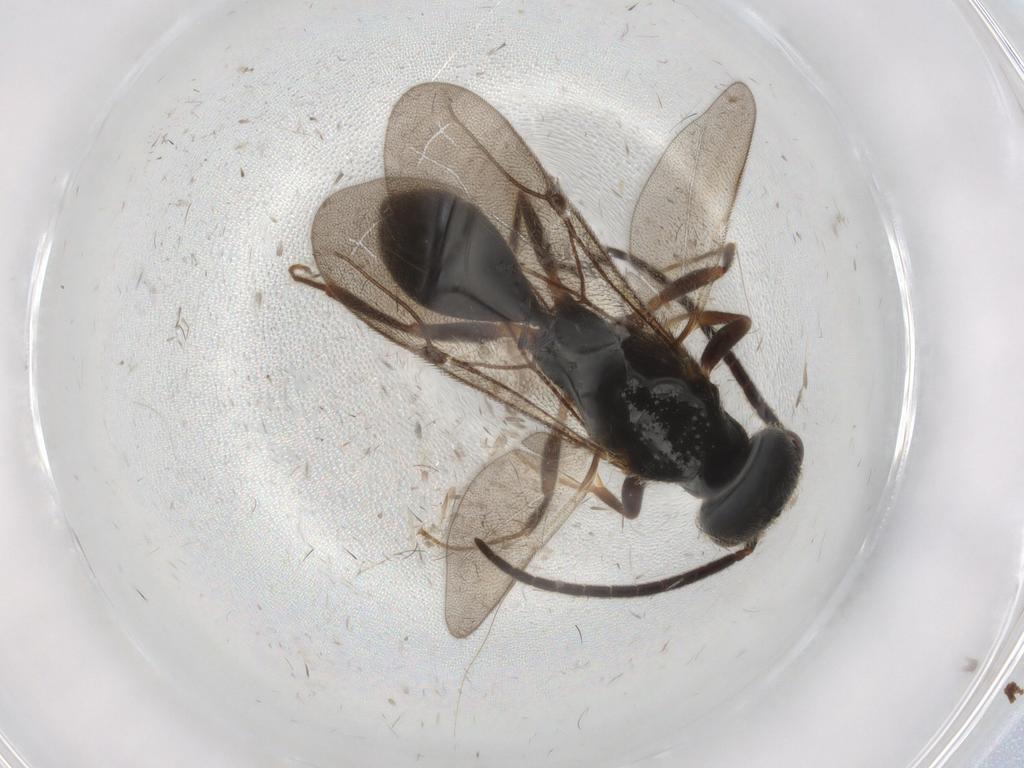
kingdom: Animalia
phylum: Arthropoda
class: Insecta
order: Hymenoptera
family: Bethylidae
